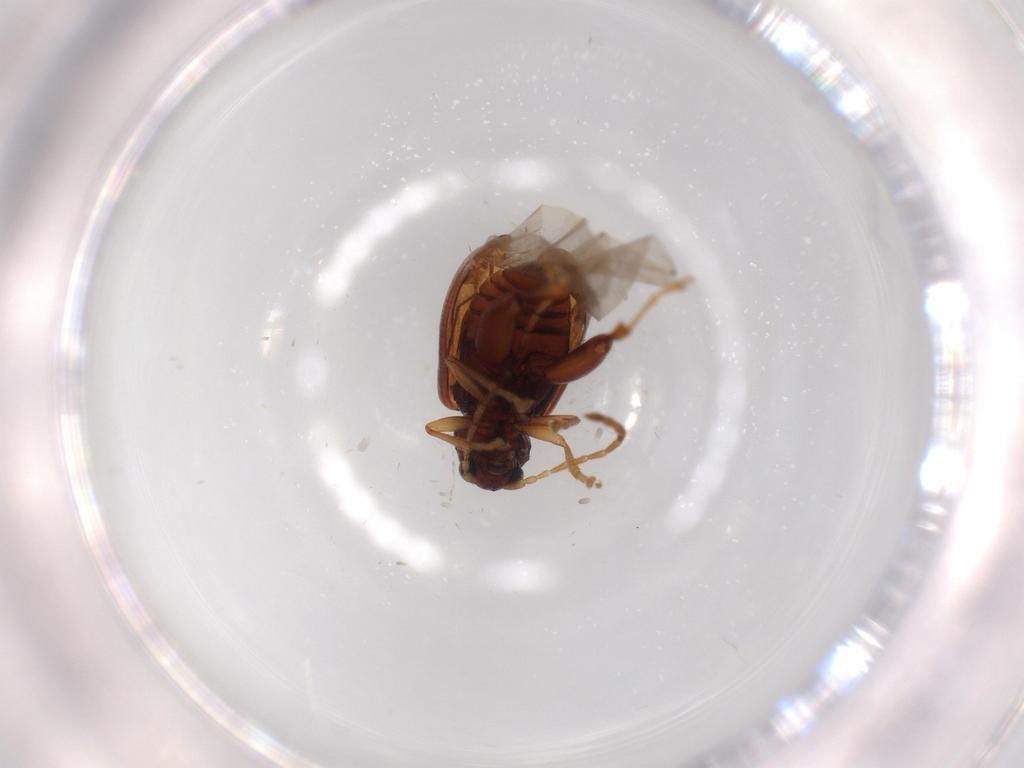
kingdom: Animalia
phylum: Arthropoda
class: Insecta
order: Coleoptera
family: Chrysomelidae
